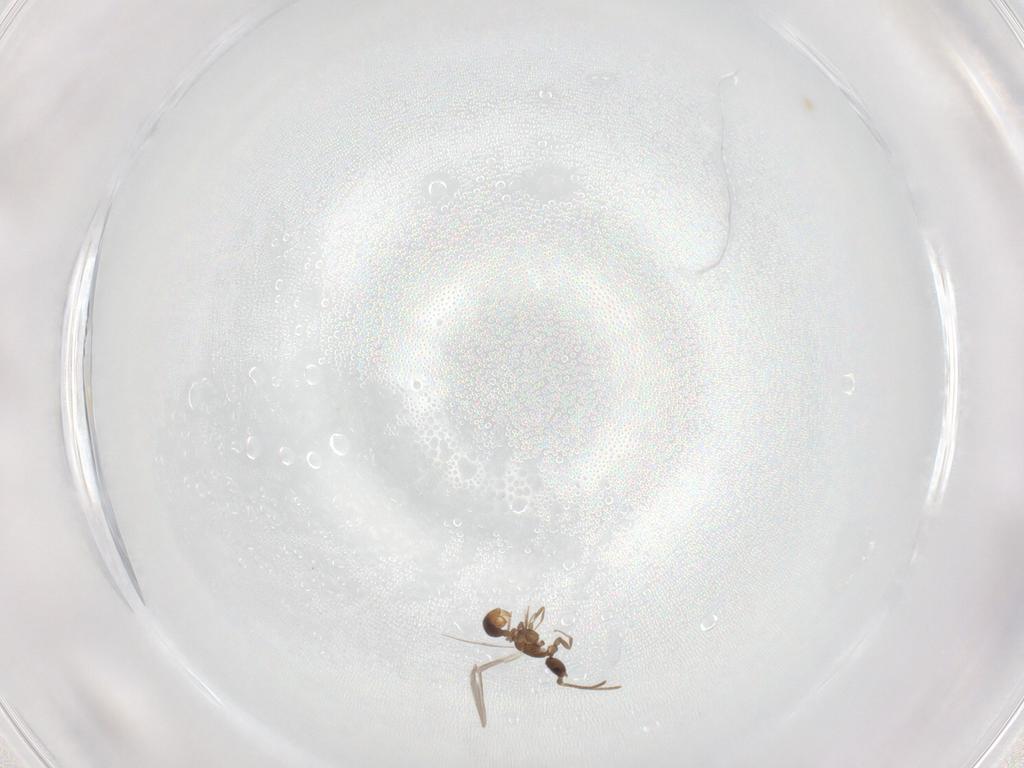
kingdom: Animalia
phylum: Arthropoda
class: Insecta
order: Hymenoptera
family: Formicidae
